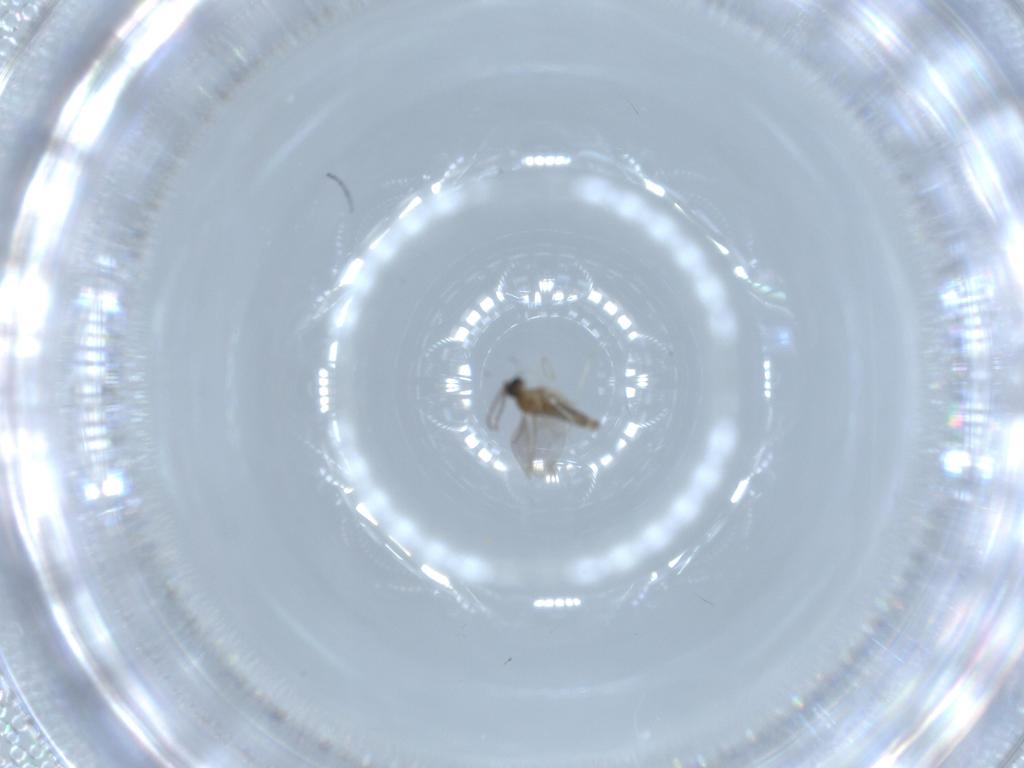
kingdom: Animalia
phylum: Arthropoda
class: Insecta
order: Diptera
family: Cecidomyiidae
